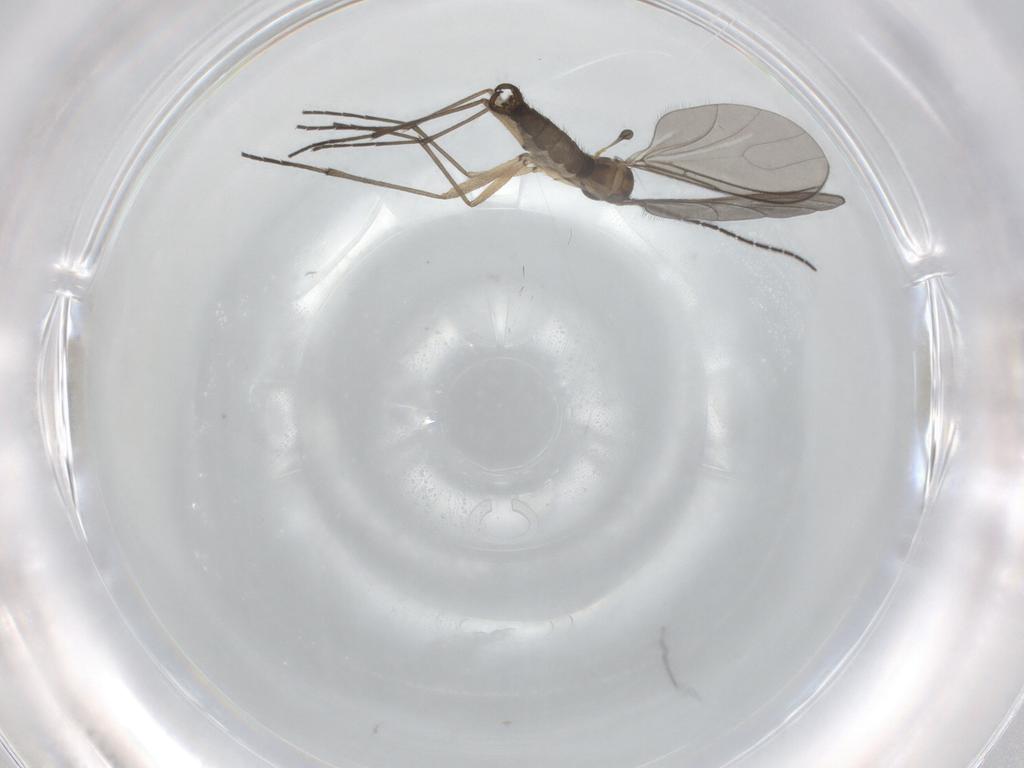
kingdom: Animalia
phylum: Arthropoda
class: Insecta
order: Diptera
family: Sciaridae
